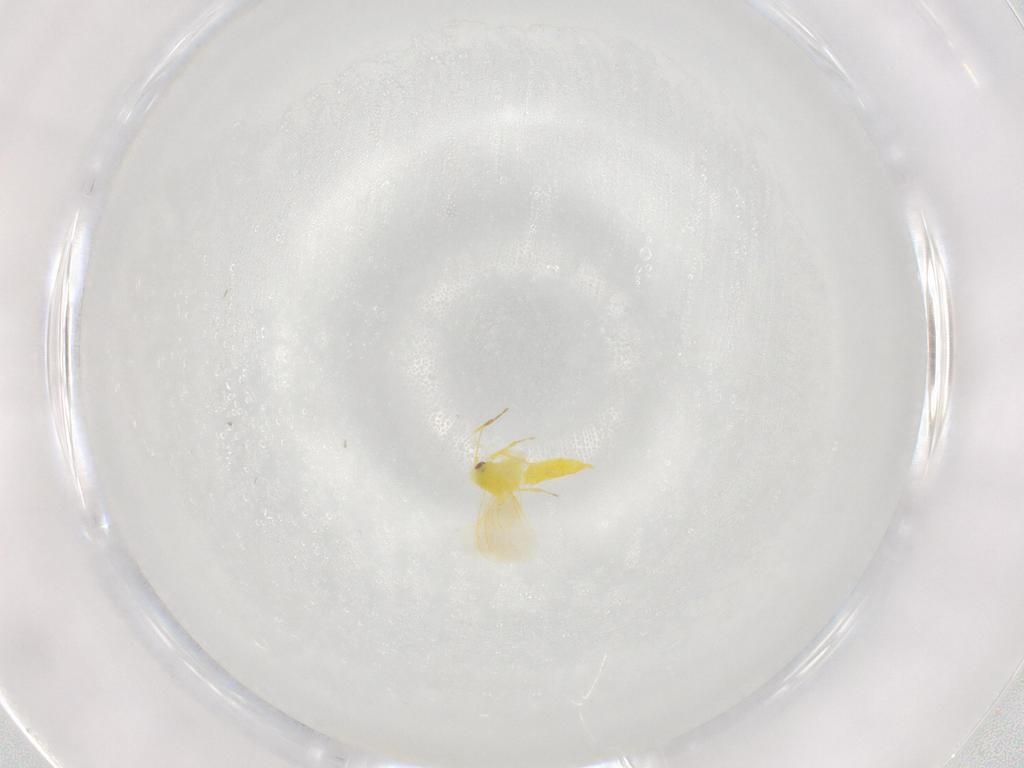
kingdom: Animalia
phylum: Arthropoda
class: Insecta
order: Hemiptera
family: Aleyrodidae
